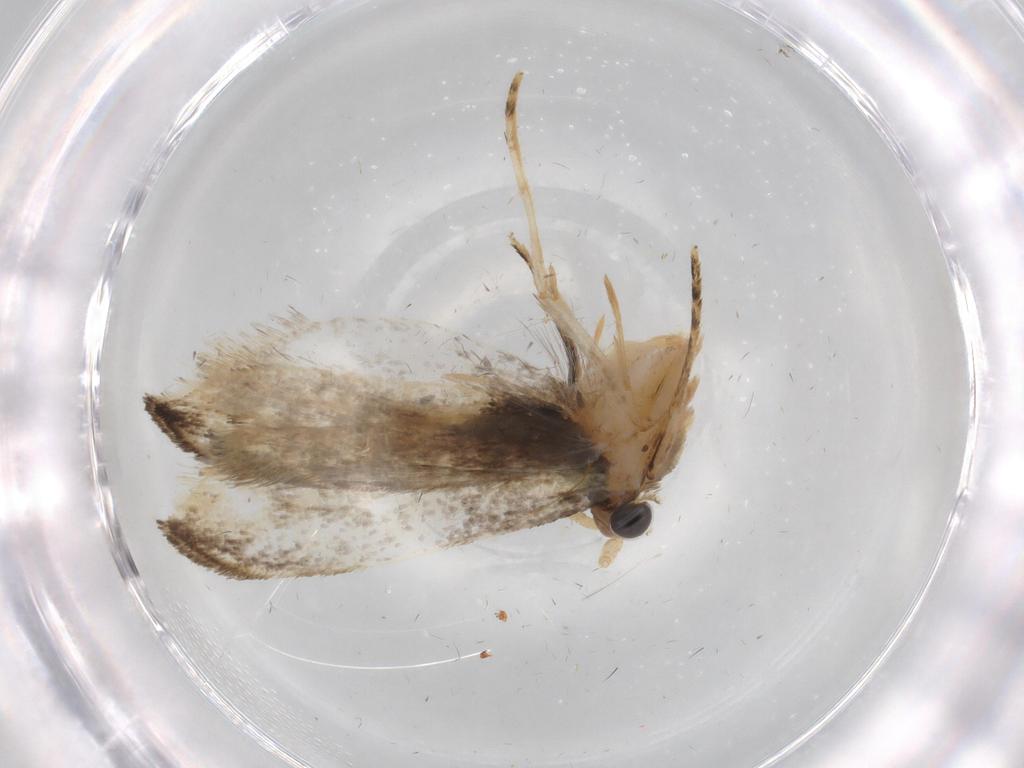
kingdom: Animalia
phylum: Arthropoda
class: Insecta
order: Lepidoptera
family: Tineidae
